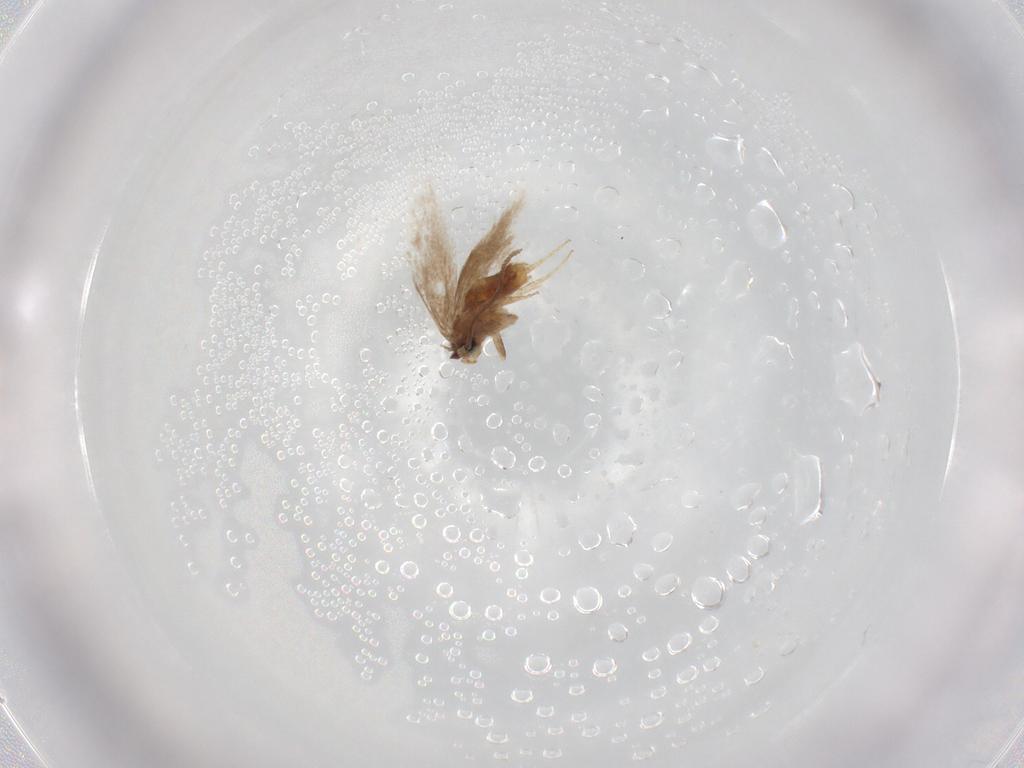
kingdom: Animalia
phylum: Arthropoda
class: Insecta
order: Lepidoptera
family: Nepticulidae
